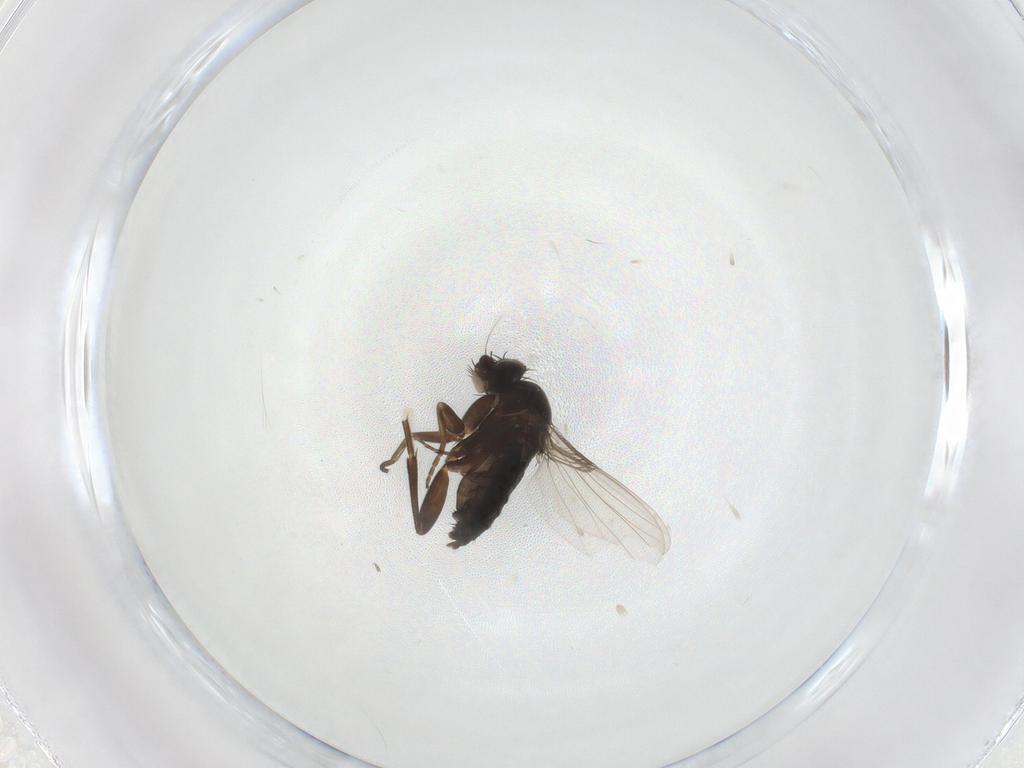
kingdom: Animalia
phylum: Arthropoda
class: Insecta
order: Diptera
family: Phoridae
